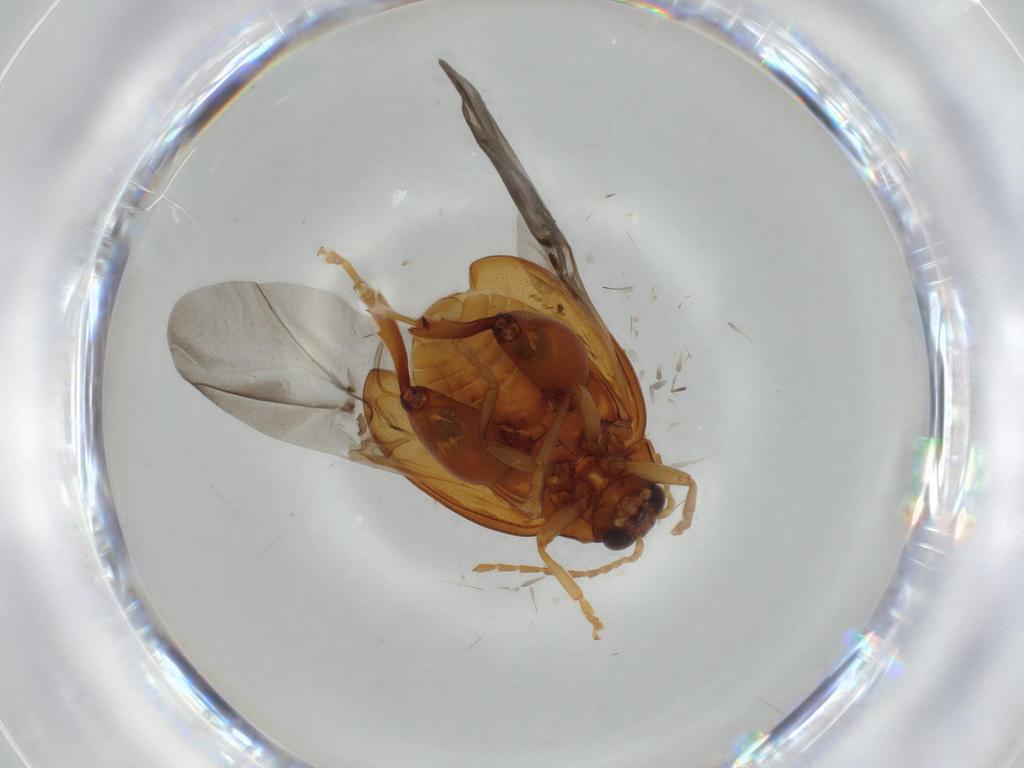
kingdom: Animalia
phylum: Arthropoda
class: Insecta
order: Coleoptera
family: Chrysomelidae
